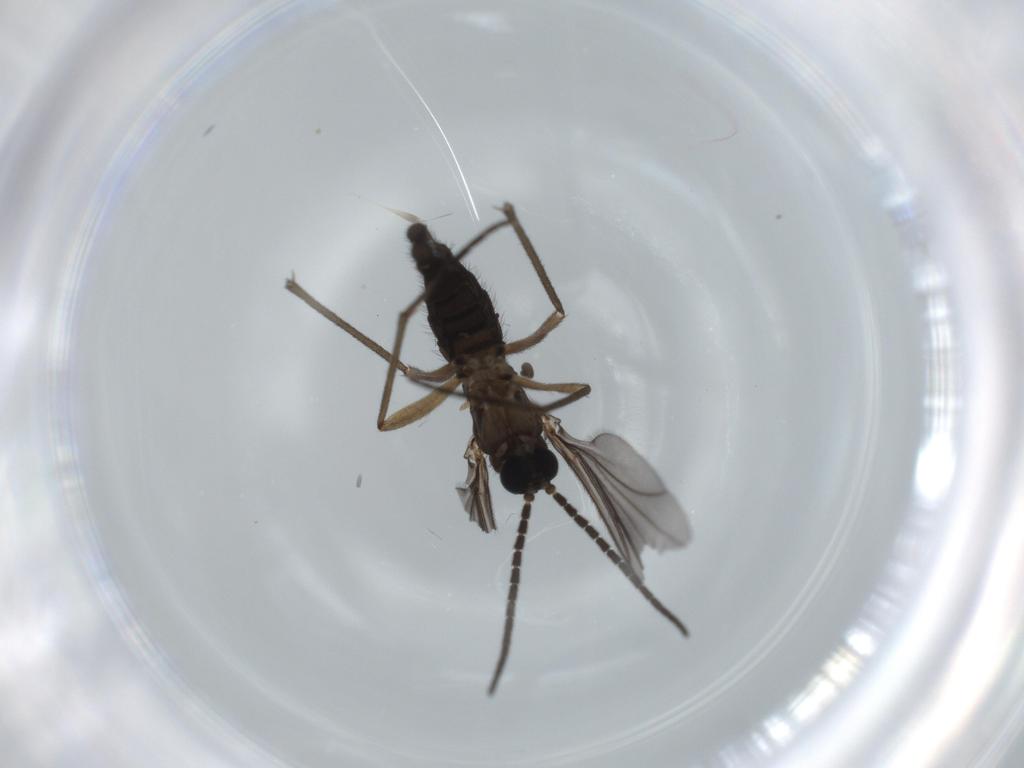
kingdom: Animalia
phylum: Arthropoda
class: Insecta
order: Diptera
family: Sciaridae
